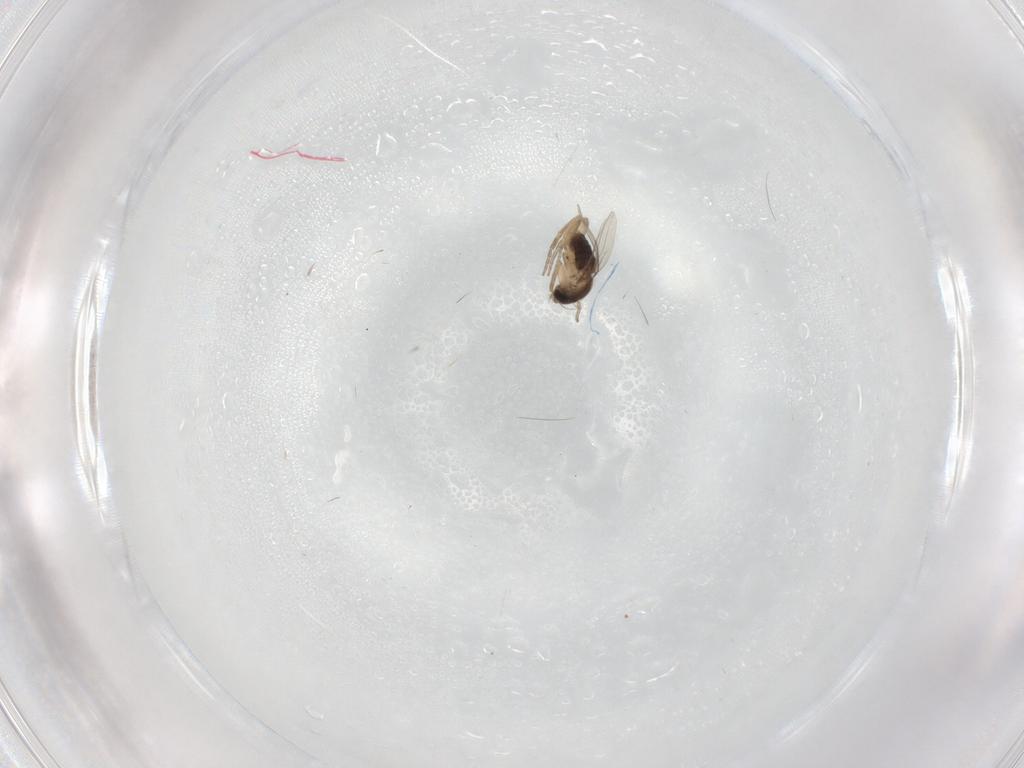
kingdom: Animalia
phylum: Arthropoda
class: Insecta
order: Diptera
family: Phoridae
